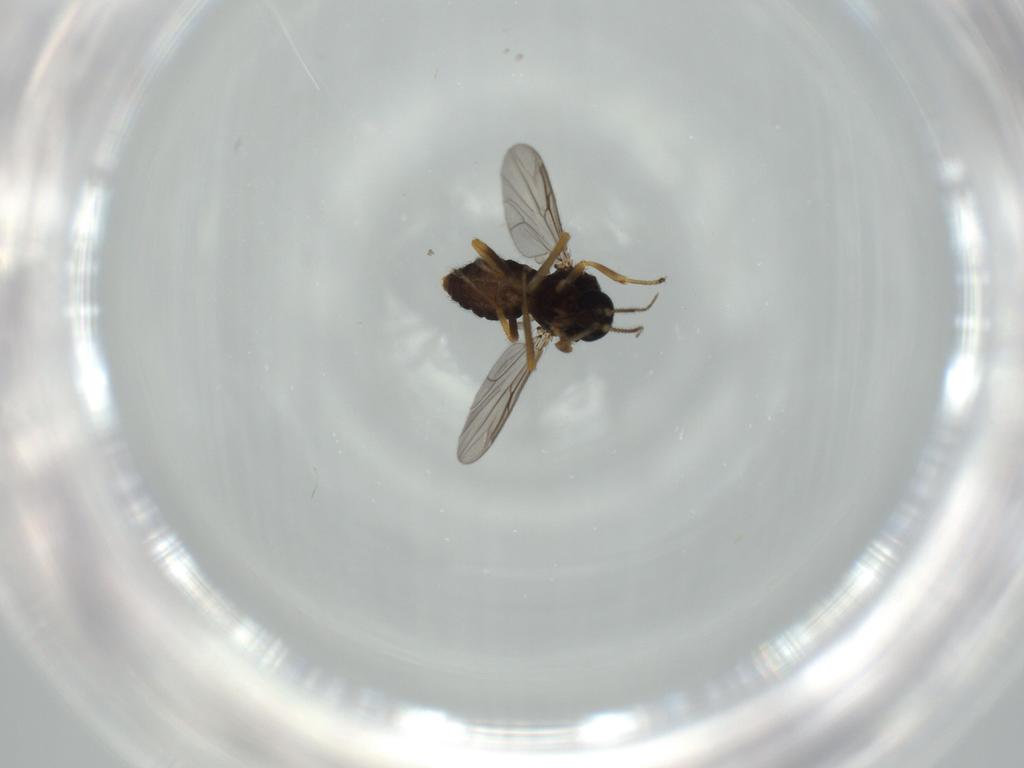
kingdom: Animalia
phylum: Arthropoda
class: Insecta
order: Diptera
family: Ceratopogonidae
